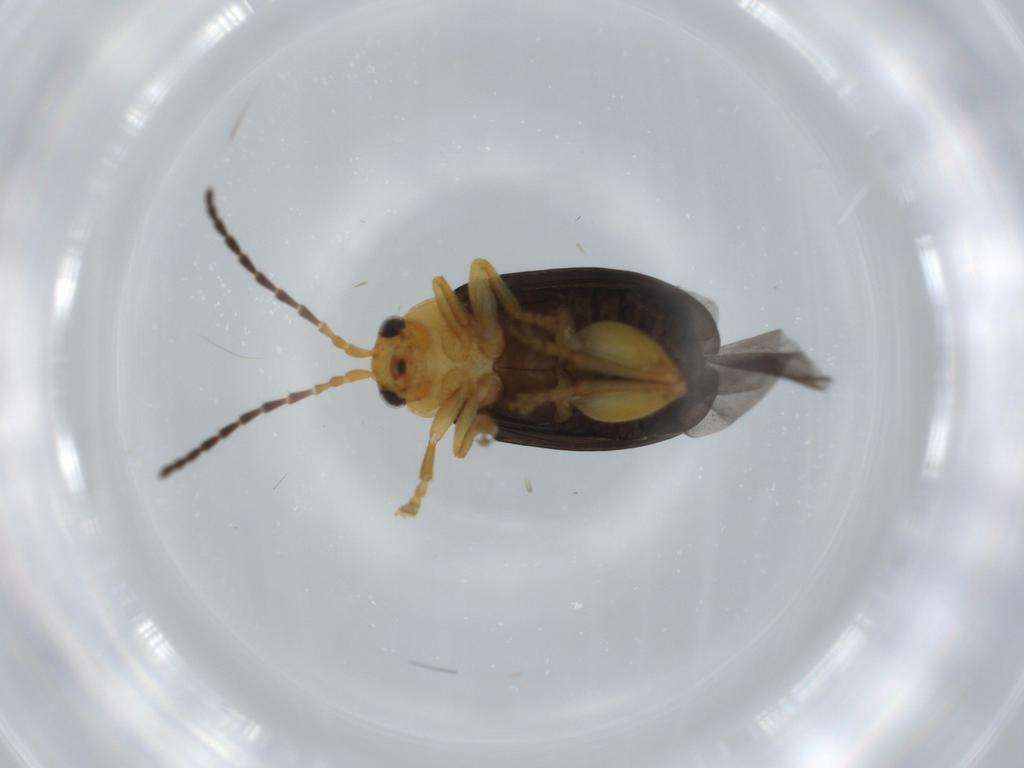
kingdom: Animalia
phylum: Arthropoda
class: Insecta
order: Coleoptera
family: Chrysomelidae
